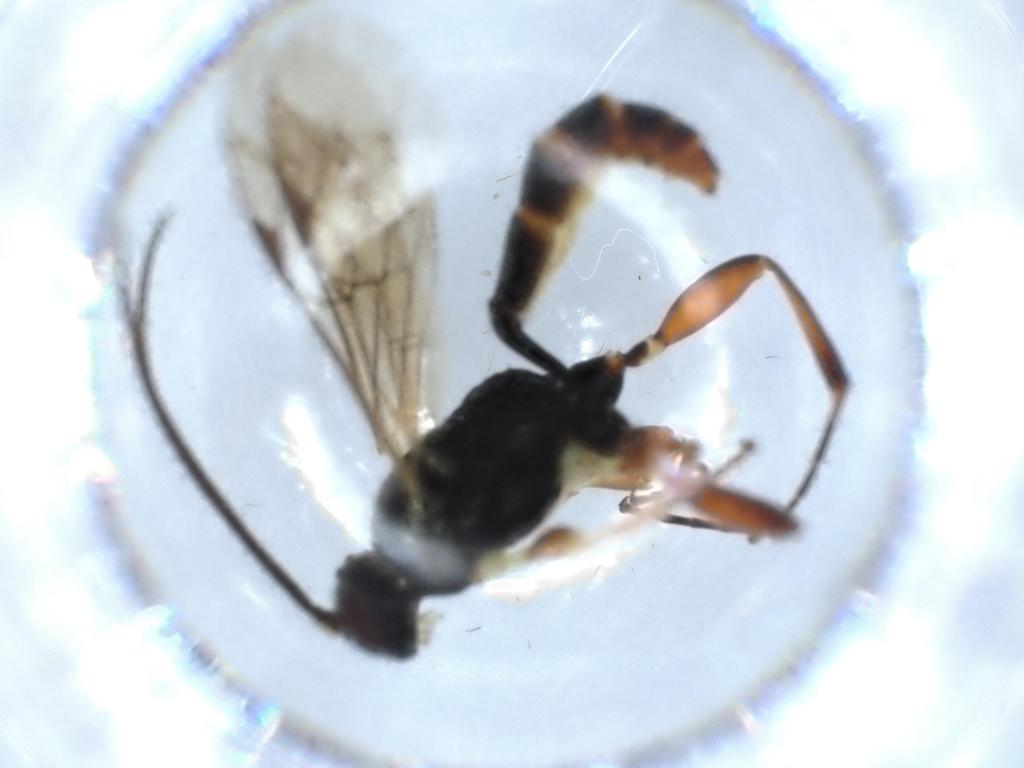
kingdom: Animalia
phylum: Arthropoda
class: Insecta
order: Hymenoptera
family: Ichneumonidae
